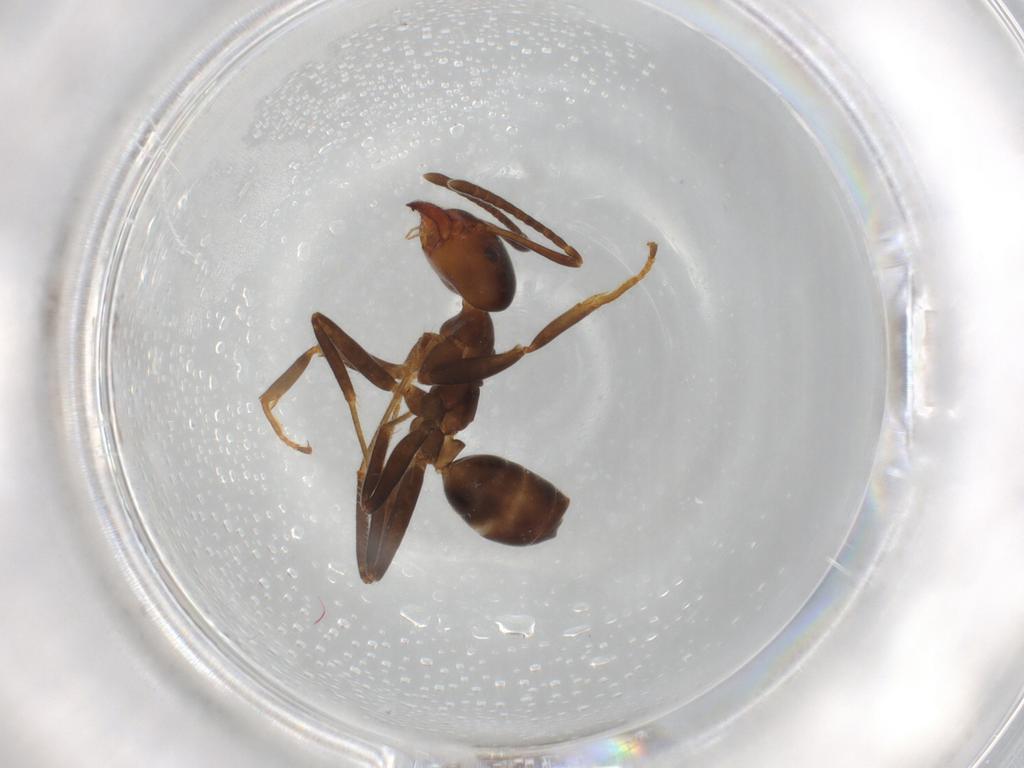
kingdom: Animalia
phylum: Arthropoda
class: Insecta
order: Hymenoptera
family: Formicidae
